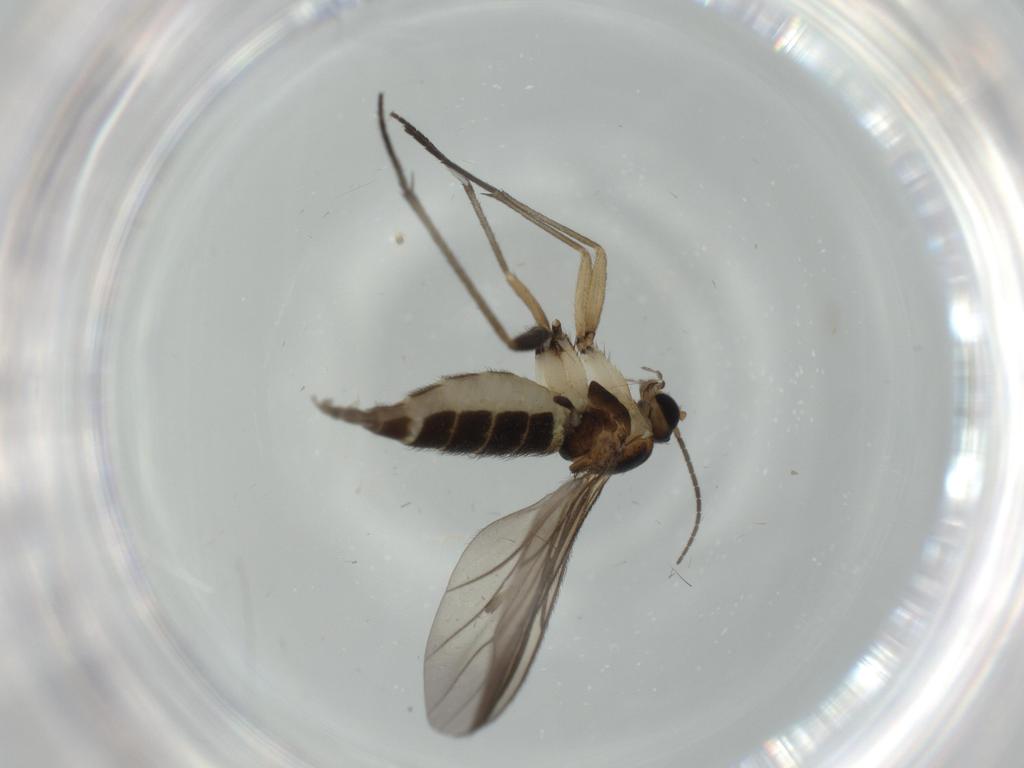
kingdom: Animalia
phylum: Arthropoda
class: Insecta
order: Diptera
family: Sciaridae
